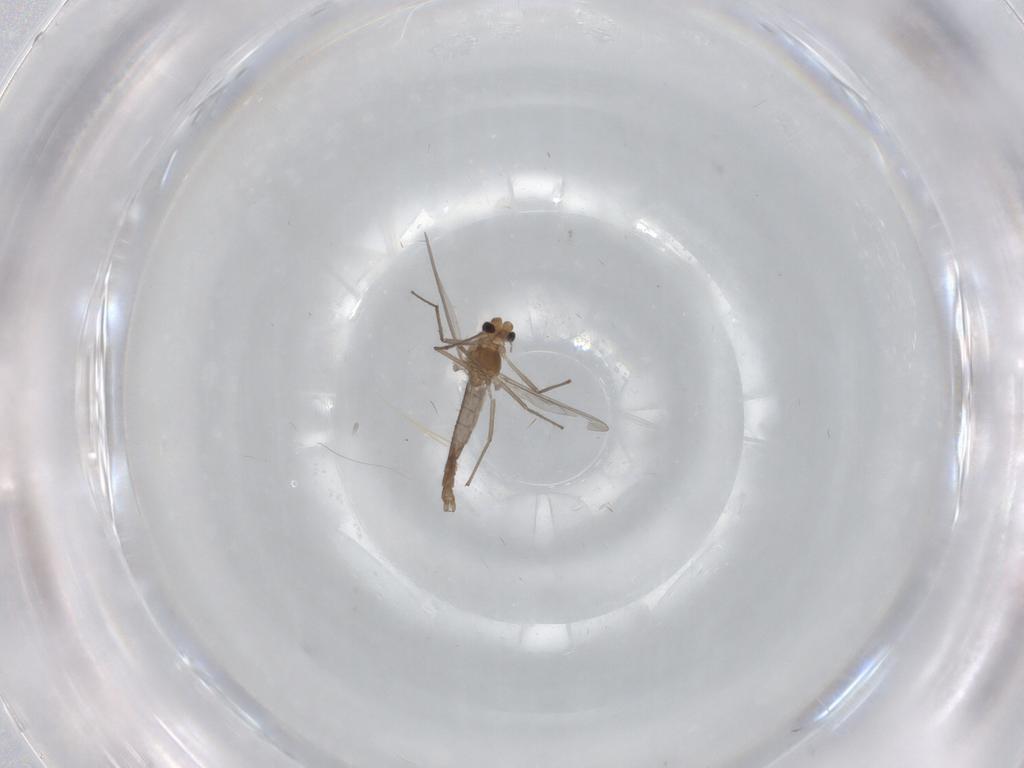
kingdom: Animalia
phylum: Arthropoda
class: Insecta
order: Diptera
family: Chironomidae
